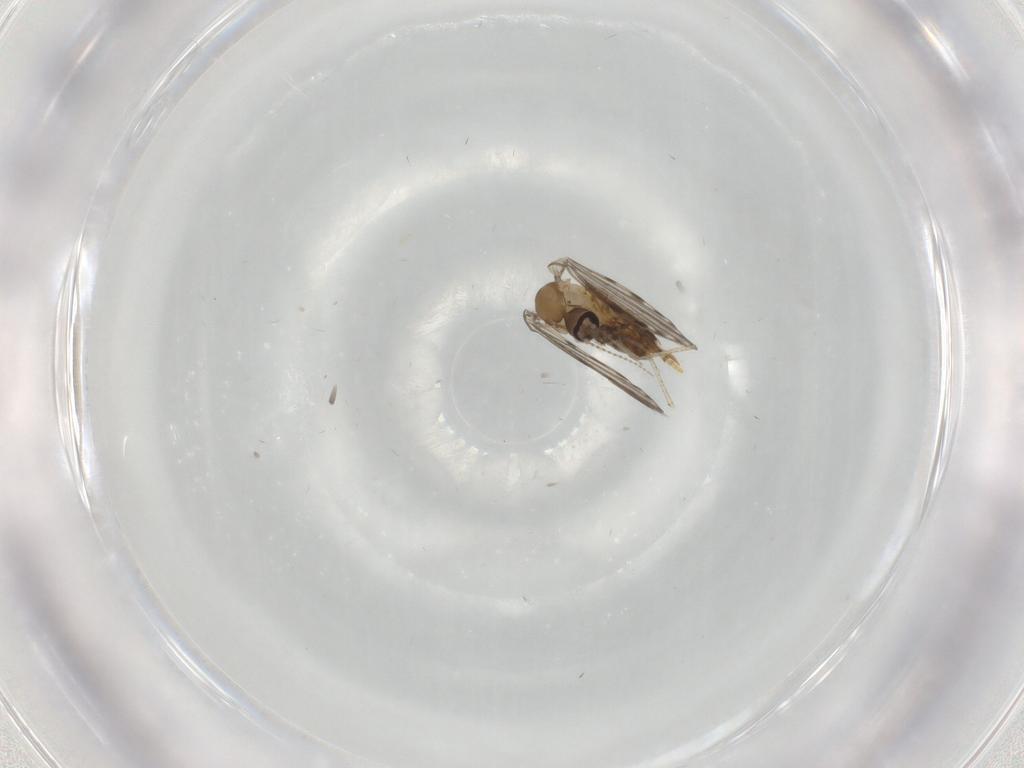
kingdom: Animalia
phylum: Arthropoda
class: Insecta
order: Diptera
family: Psychodidae
